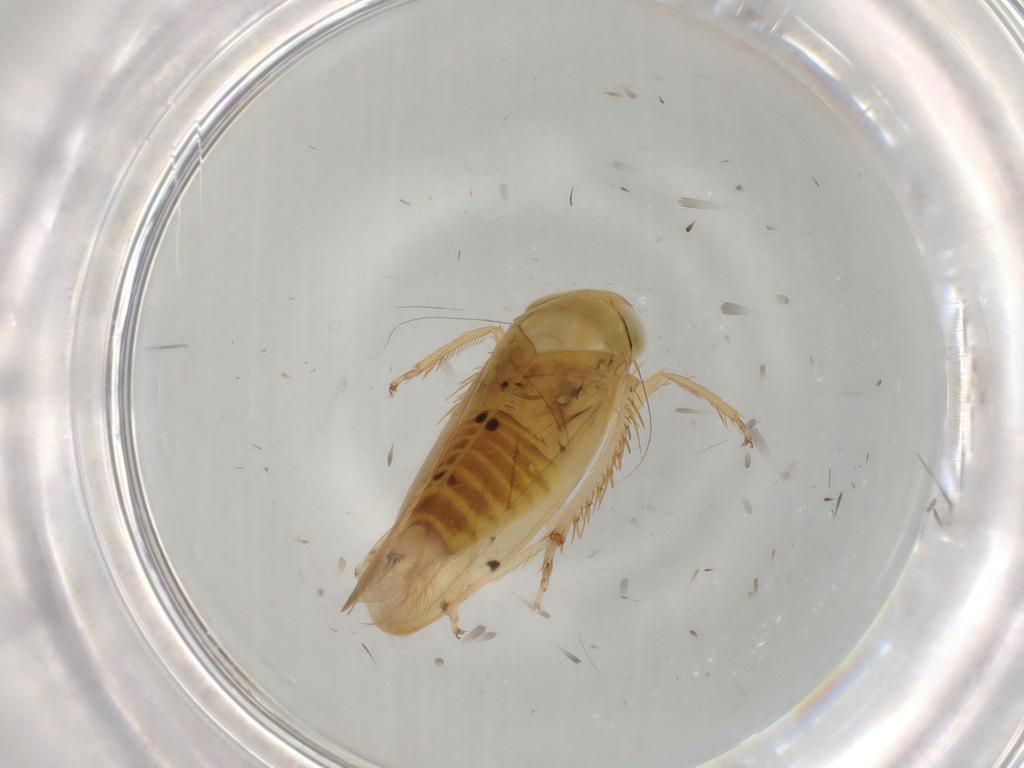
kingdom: Animalia
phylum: Arthropoda
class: Insecta
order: Hemiptera
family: Cicadellidae
